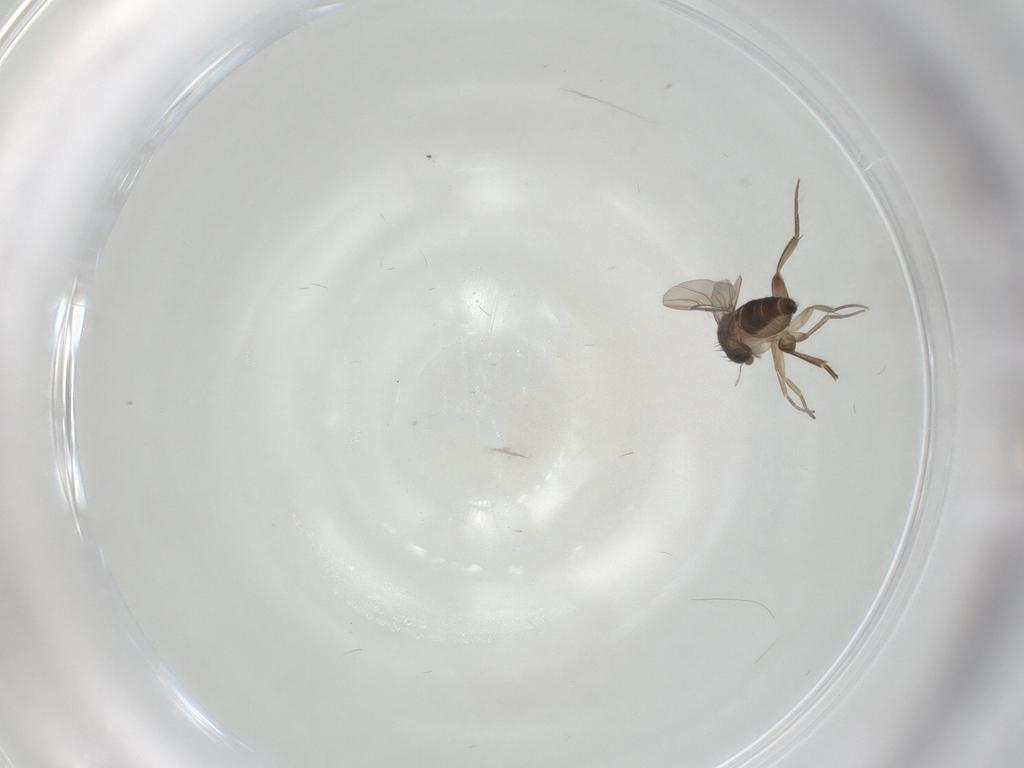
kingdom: Animalia
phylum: Arthropoda
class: Insecta
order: Diptera
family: Phoridae
